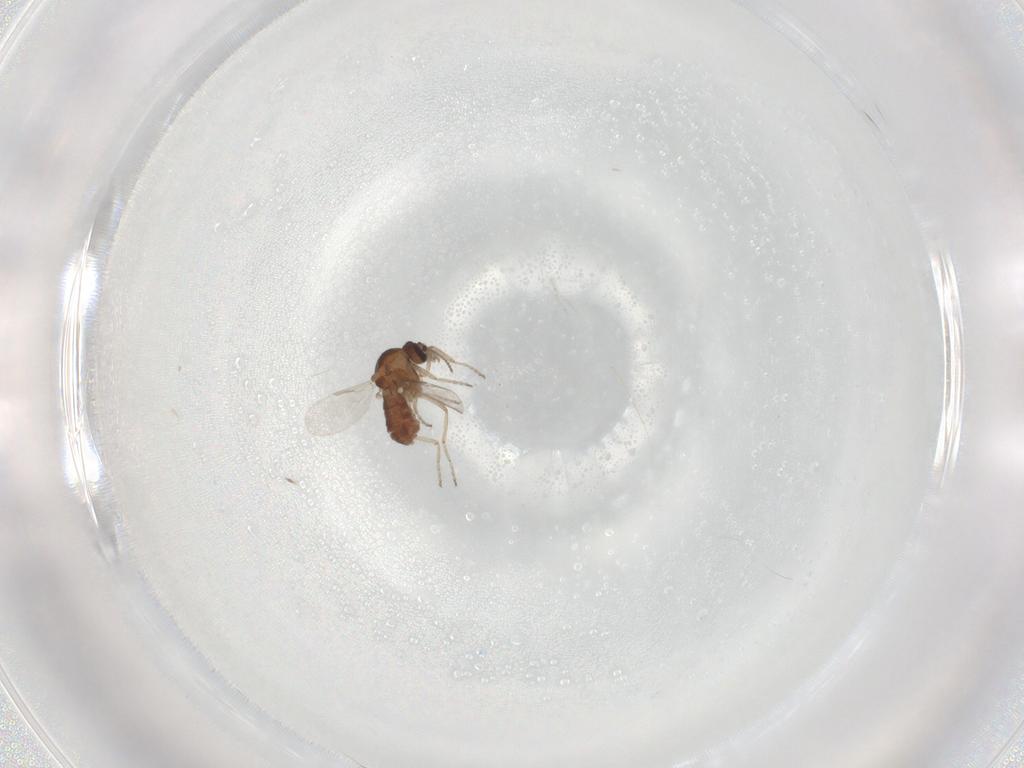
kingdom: Animalia
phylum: Arthropoda
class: Insecta
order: Diptera
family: Ceratopogonidae
